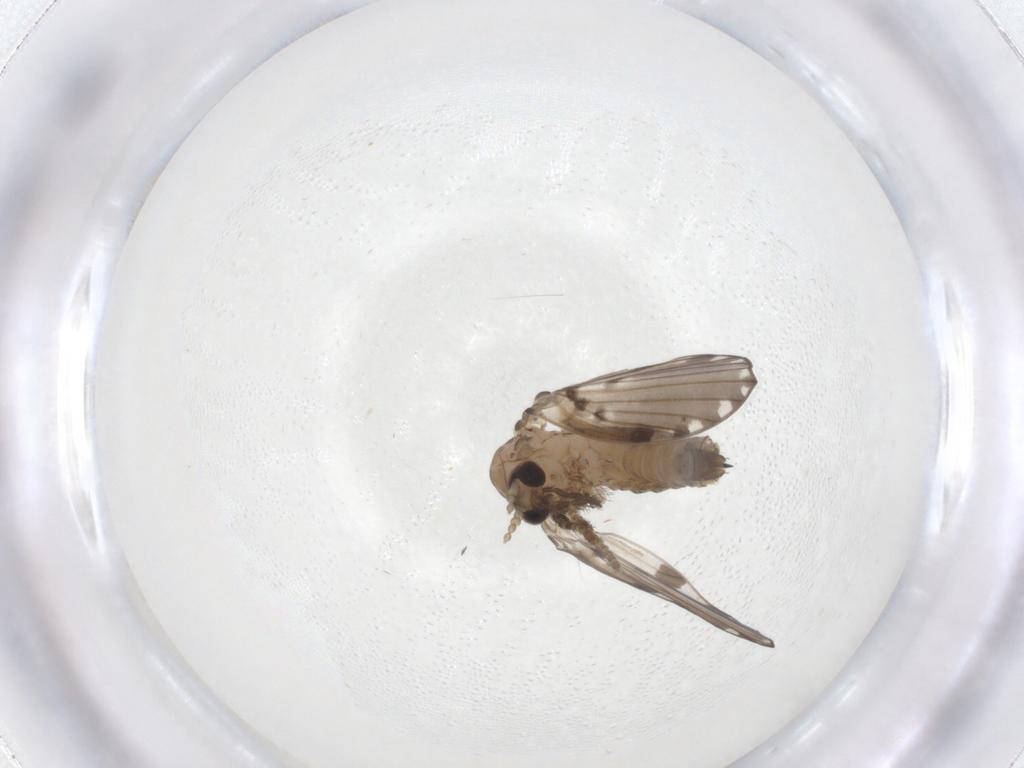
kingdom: Animalia
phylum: Arthropoda
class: Insecta
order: Diptera
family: Psychodidae
